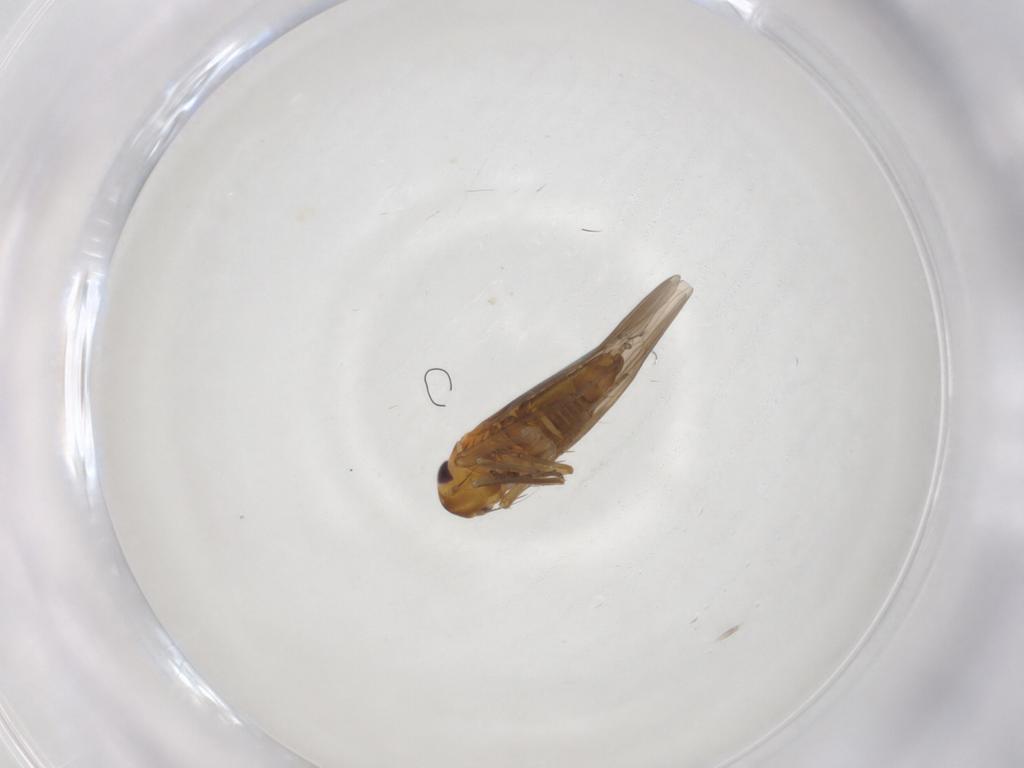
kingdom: Animalia
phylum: Arthropoda
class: Insecta
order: Hemiptera
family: Cicadellidae
